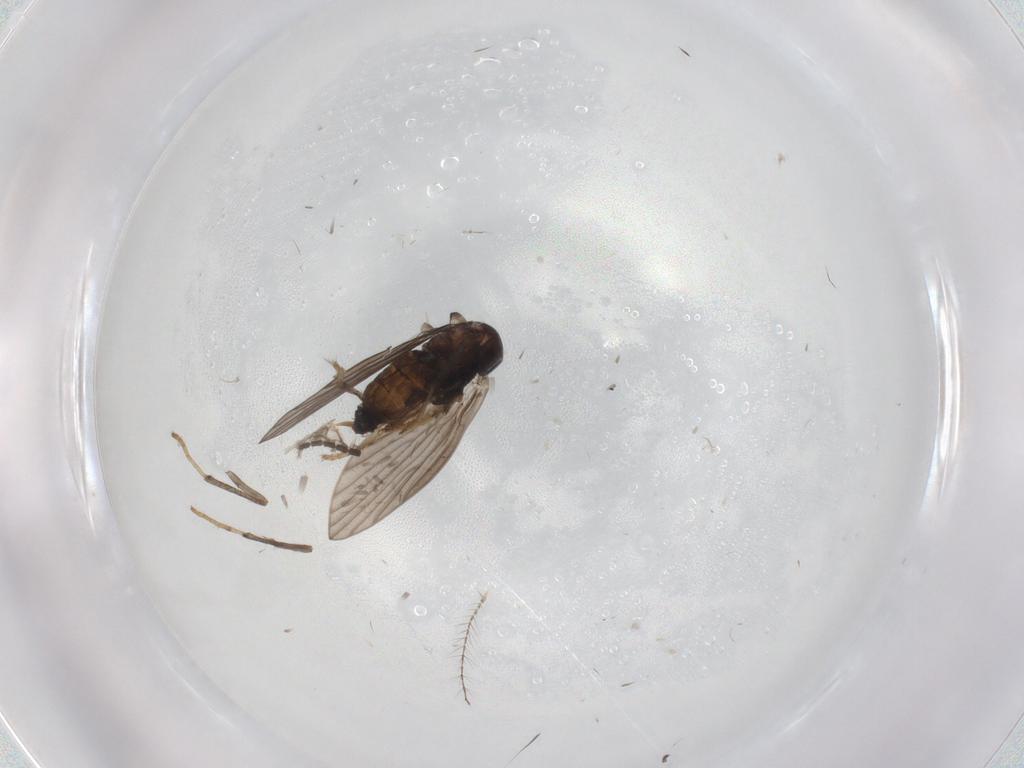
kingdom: Animalia
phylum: Arthropoda
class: Insecta
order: Diptera
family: Psychodidae
